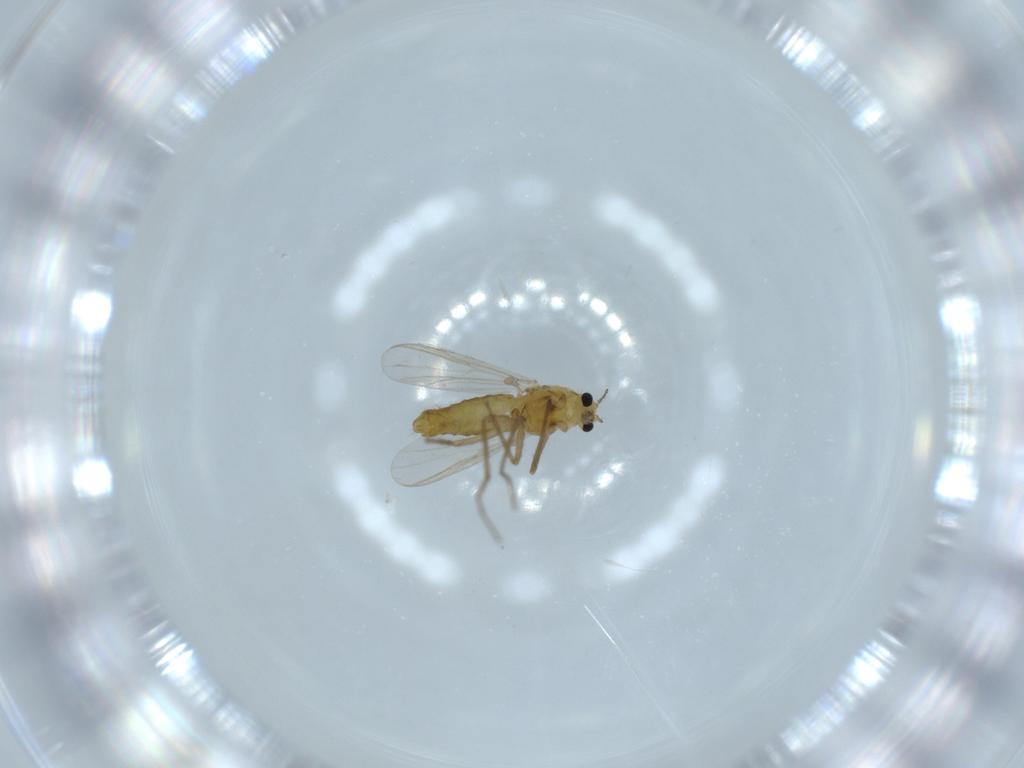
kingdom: Animalia
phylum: Arthropoda
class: Insecta
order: Diptera
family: Chironomidae
